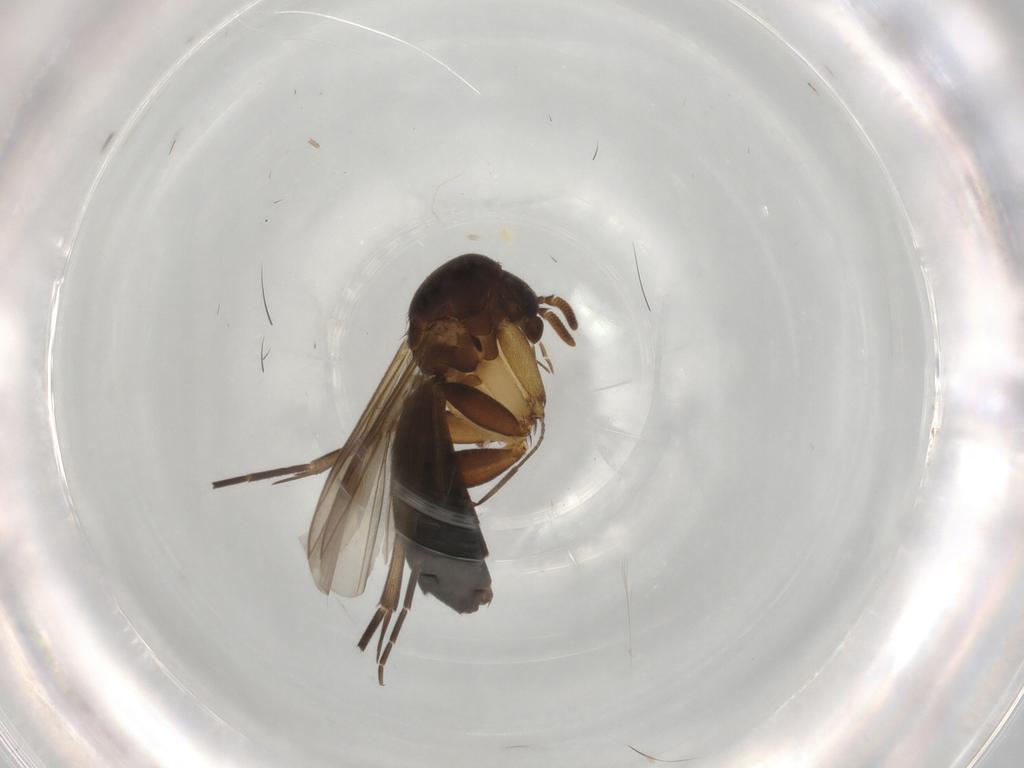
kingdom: Animalia
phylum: Arthropoda
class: Insecta
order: Diptera
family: Mycetophilidae
